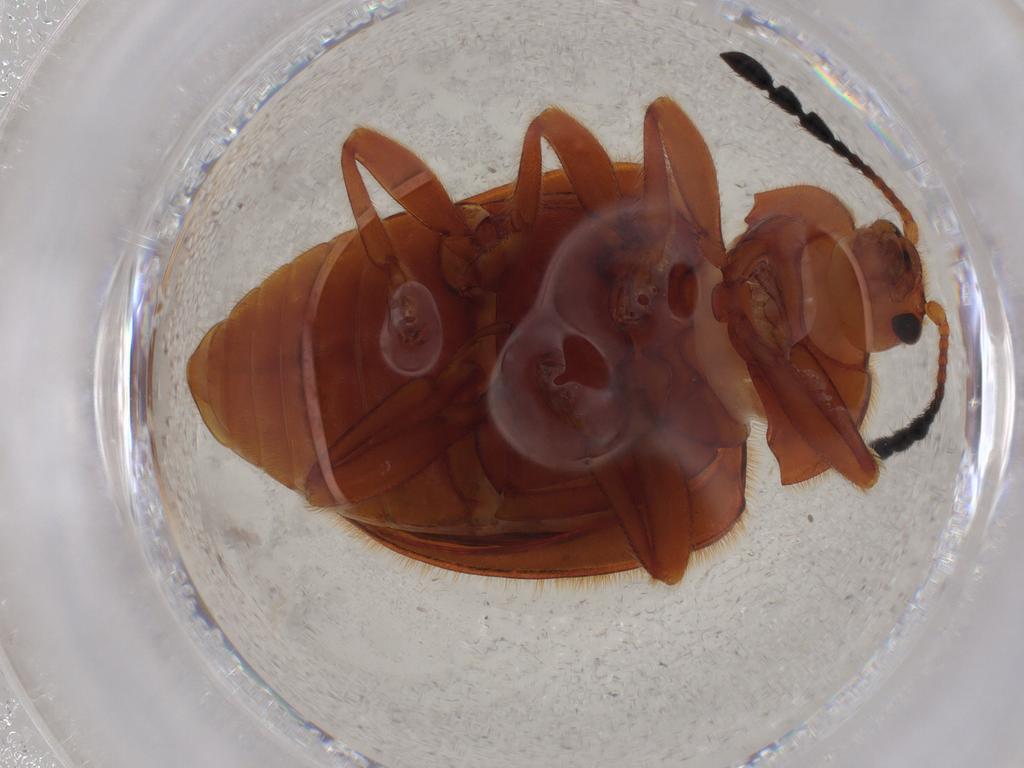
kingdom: Animalia
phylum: Arthropoda
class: Insecta
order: Coleoptera
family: Endomychidae
